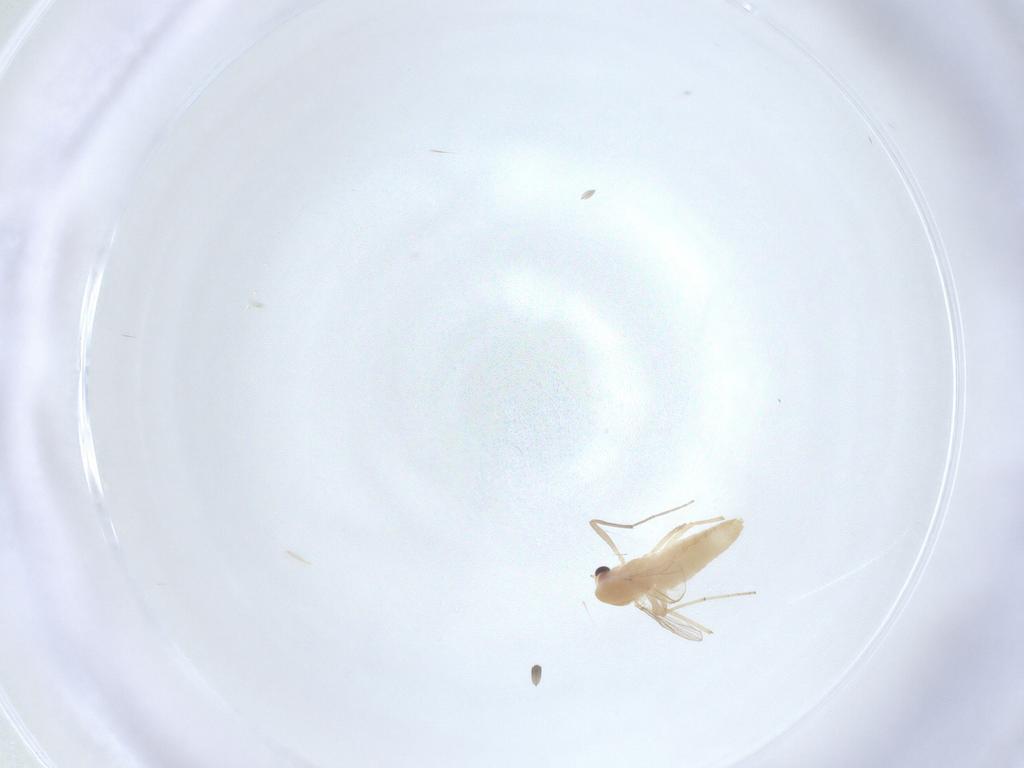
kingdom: Animalia
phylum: Arthropoda
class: Insecta
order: Diptera
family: Chironomidae
